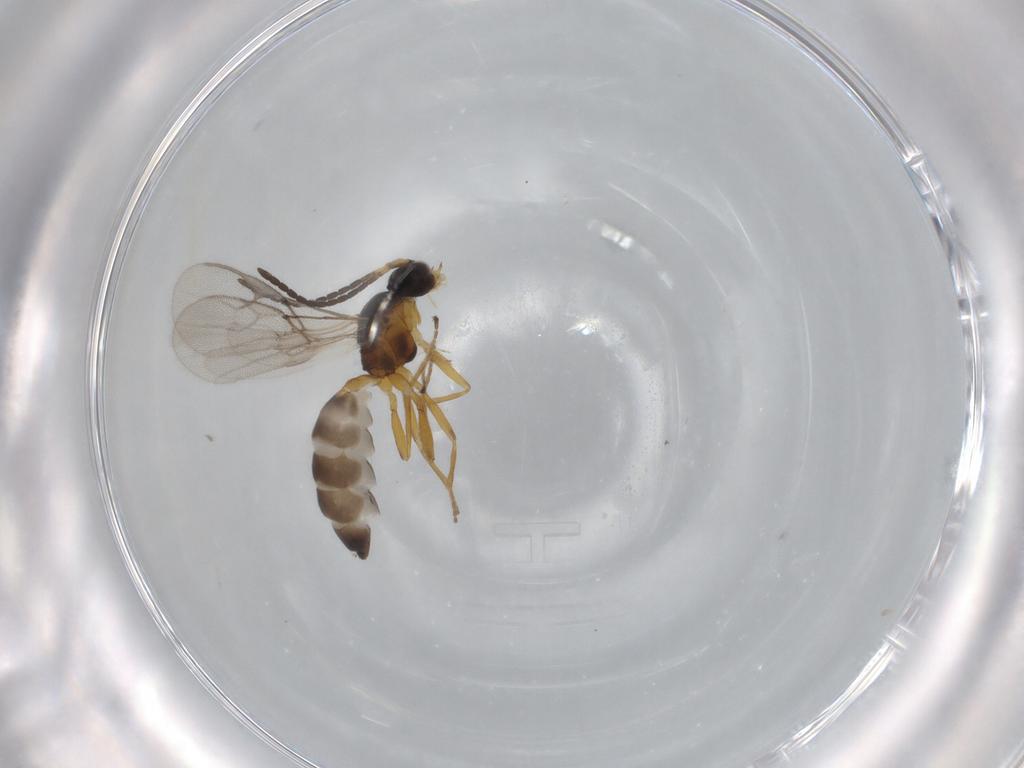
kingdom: Animalia
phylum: Arthropoda
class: Insecta
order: Hymenoptera
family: Braconidae
